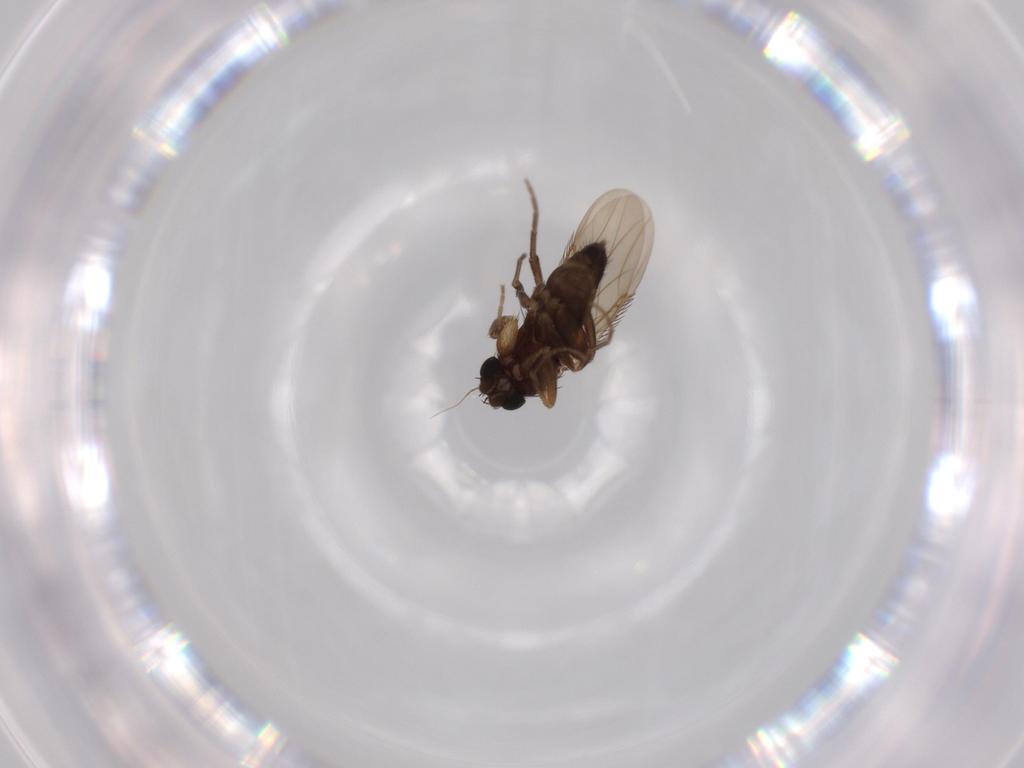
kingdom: Animalia
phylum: Arthropoda
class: Insecta
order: Diptera
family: Phoridae
